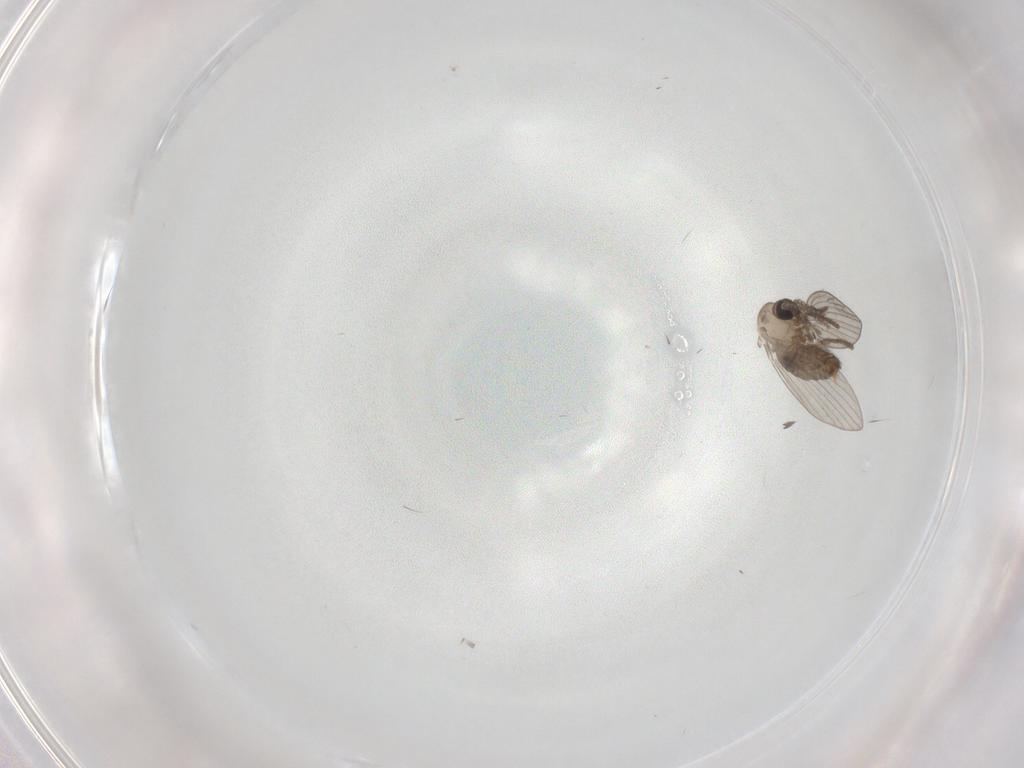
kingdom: Animalia
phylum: Arthropoda
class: Insecta
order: Diptera
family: Psychodidae
